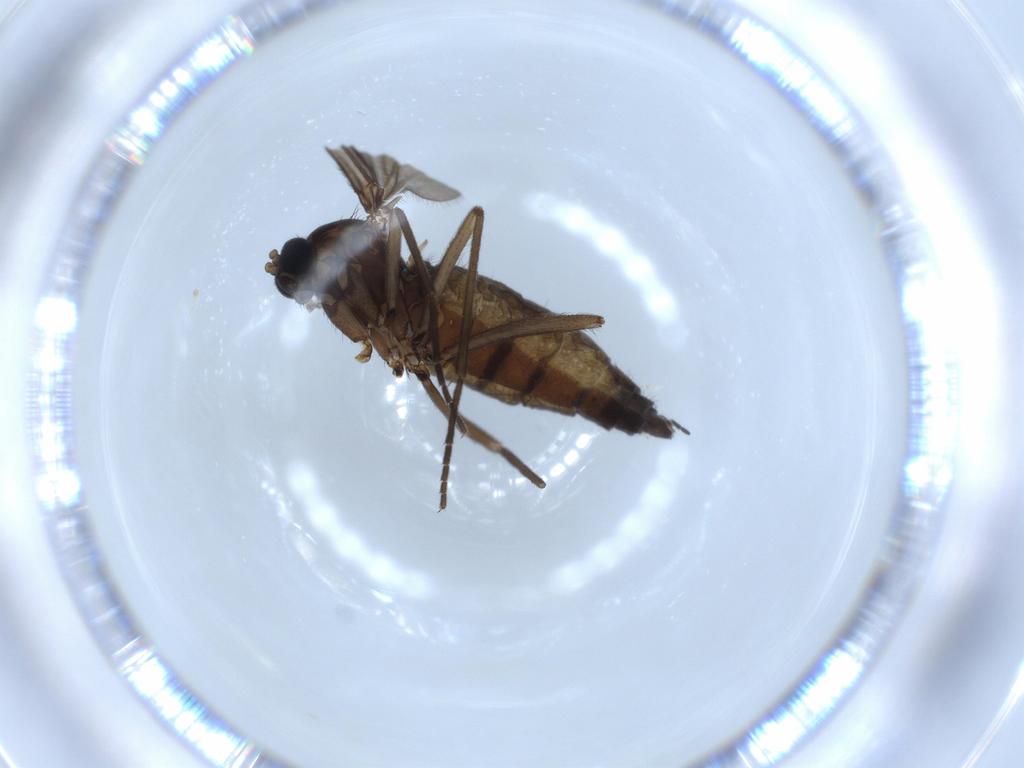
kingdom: Animalia
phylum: Arthropoda
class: Insecta
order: Diptera
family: Sciaridae
